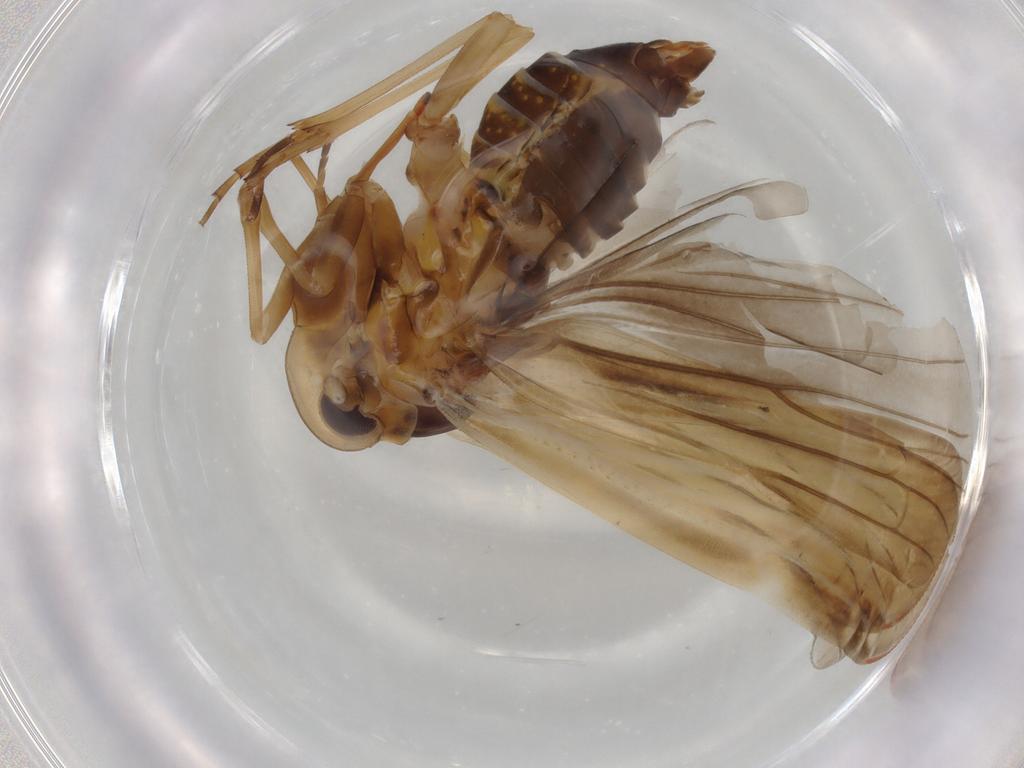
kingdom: Animalia
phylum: Arthropoda
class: Insecta
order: Hemiptera
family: Derbidae
